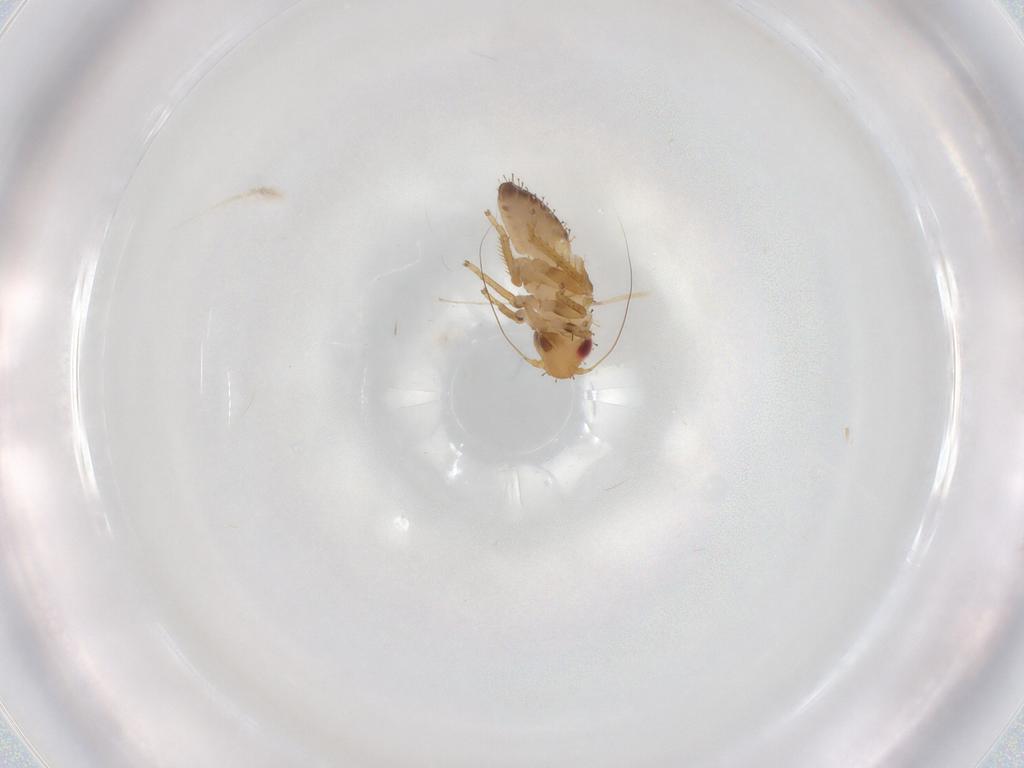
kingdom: Animalia
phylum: Arthropoda
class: Insecta
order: Hemiptera
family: Cicadellidae
